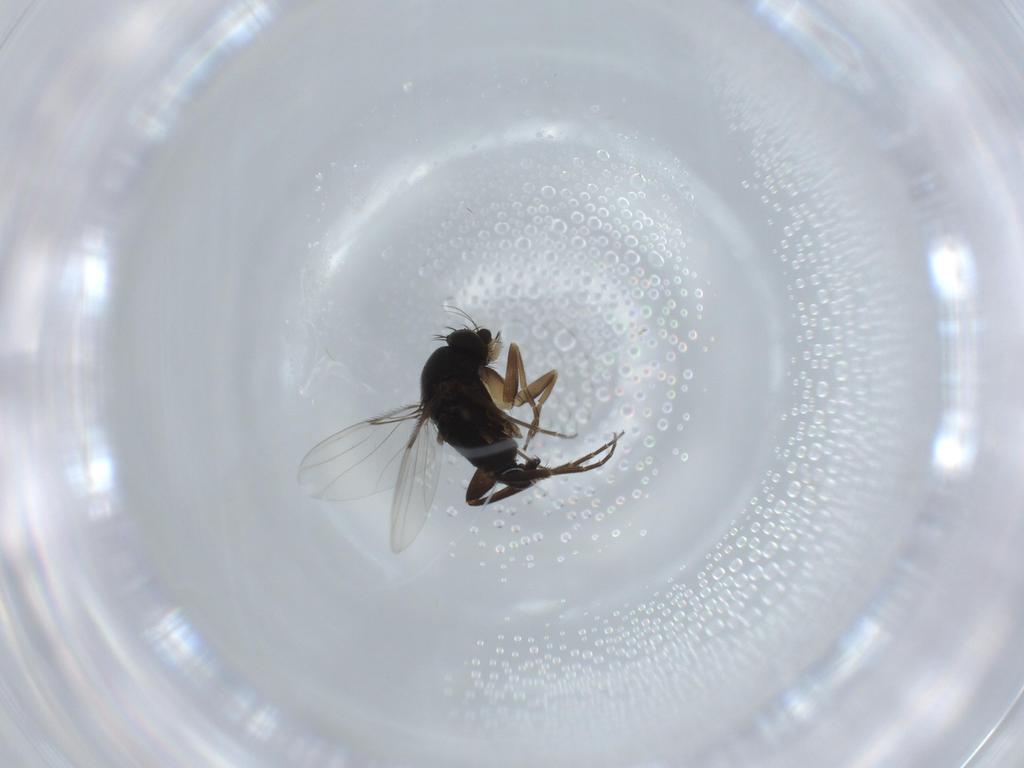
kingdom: Animalia
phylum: Arthropoda
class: Insecta
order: Diptera
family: Phoridae
